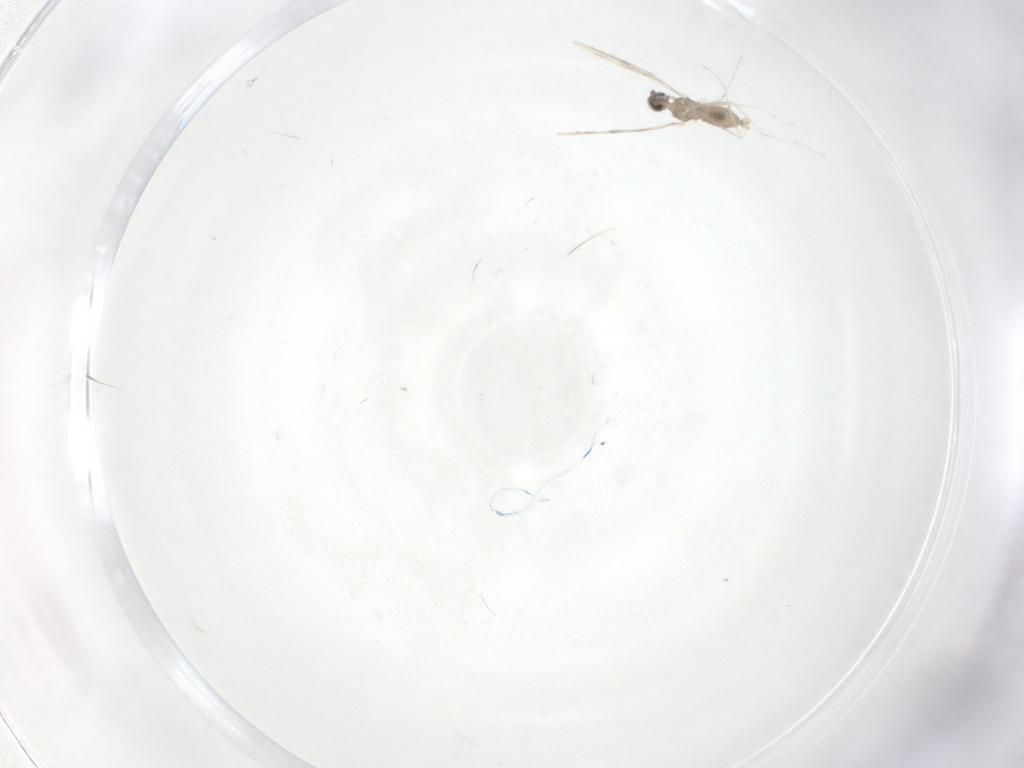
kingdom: Animalia
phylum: Arthropoda
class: Insecta
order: Diptera
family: Cecidomyiidae
